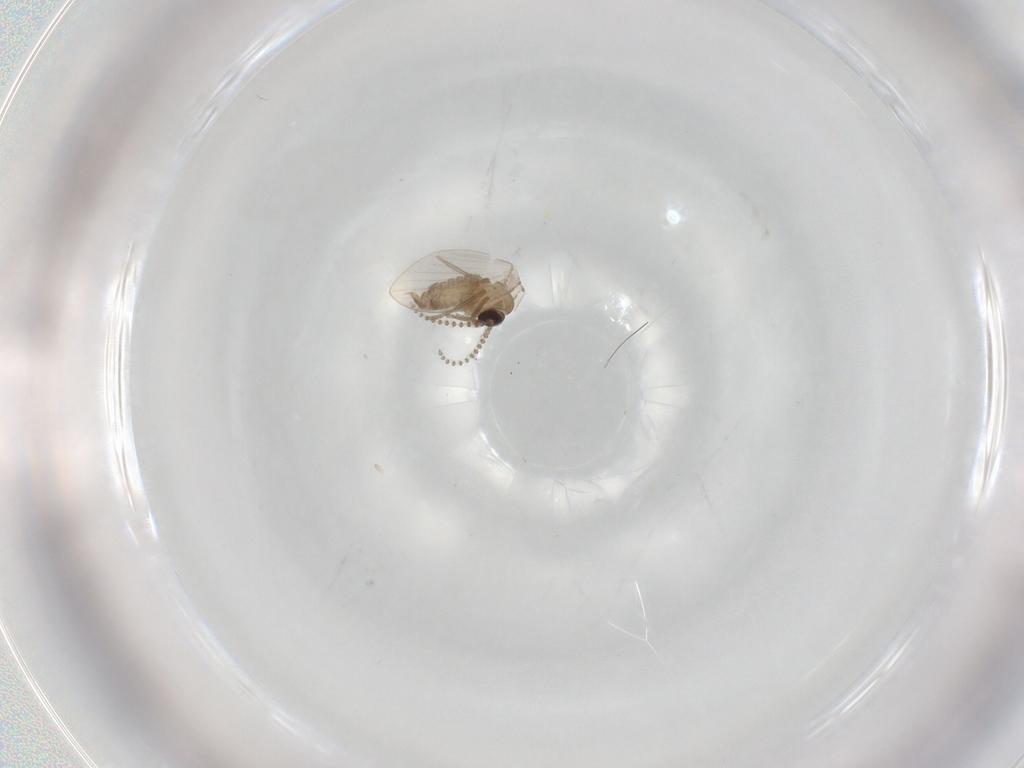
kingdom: Animalia
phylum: Arthropoda
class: Insecta
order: Diptera
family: Psychodidae
